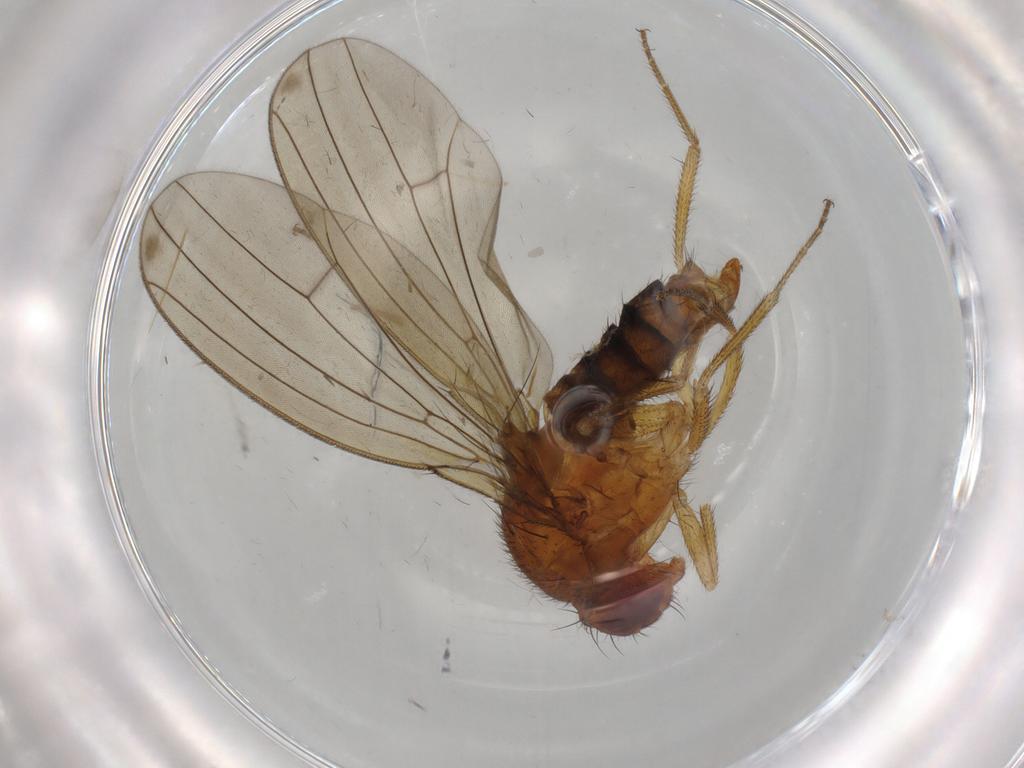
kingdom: Animalia
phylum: Arthropoda
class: Insecta
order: Diptera
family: Drosophilidae
